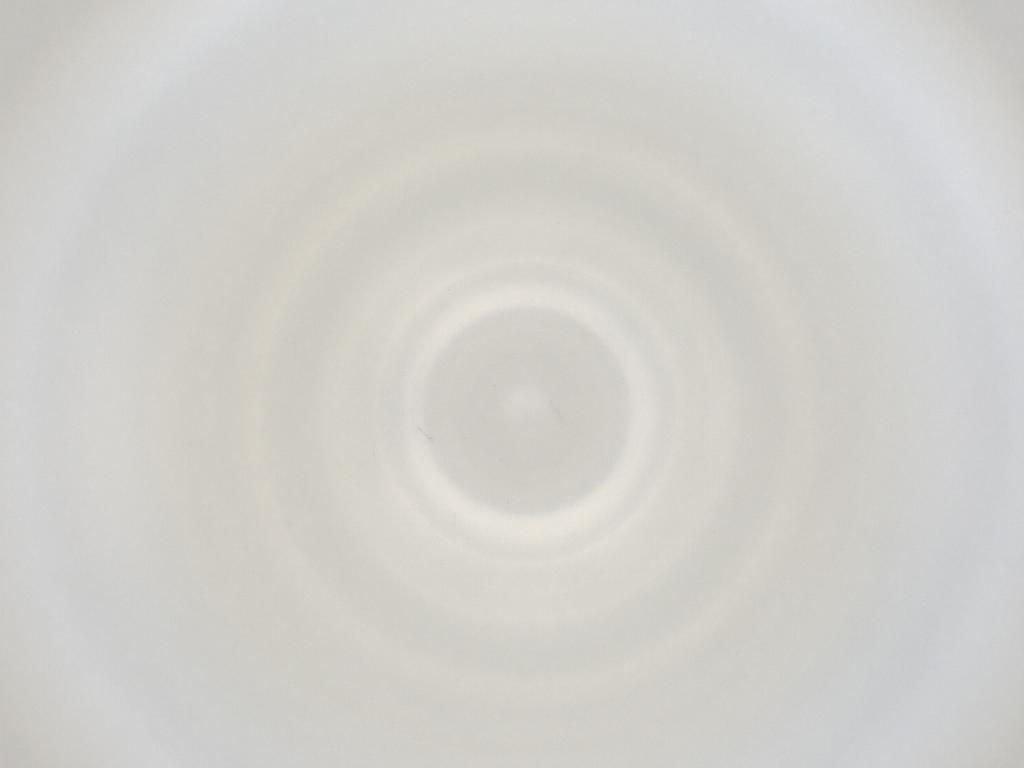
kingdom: Animalia
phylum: Arthropoda
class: Insecta
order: Diptera
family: Cecidomyiidae
